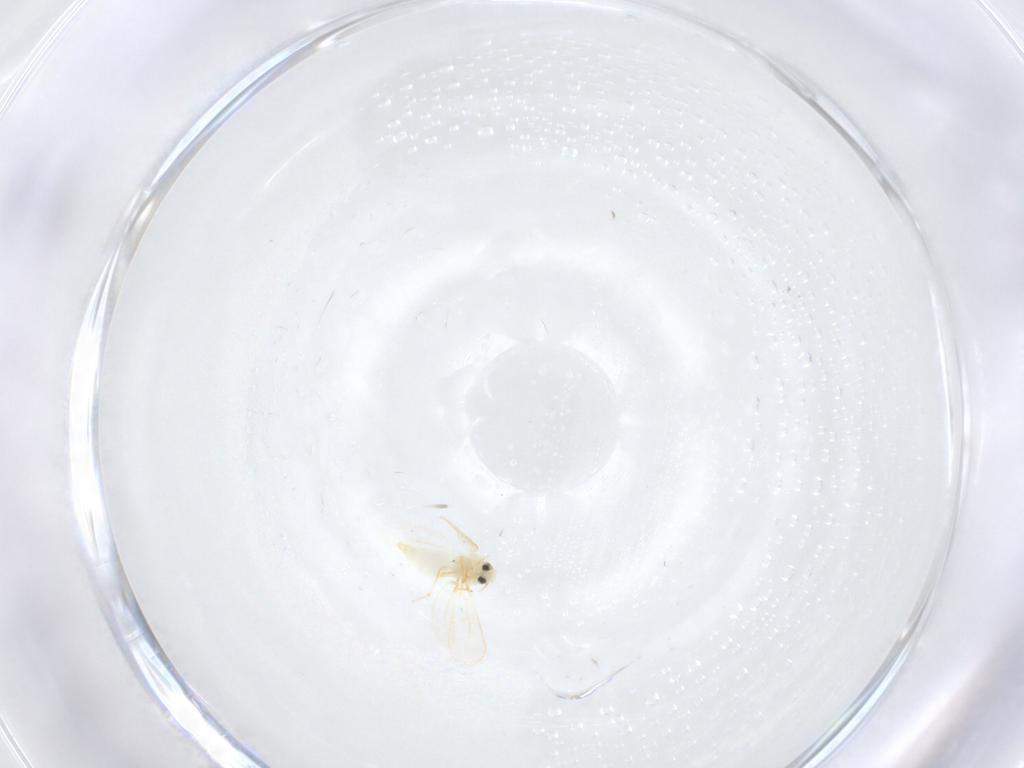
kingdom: Animalia
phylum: Arthropoda
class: Insecta
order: Hemiptera
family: Aleyrodidae
